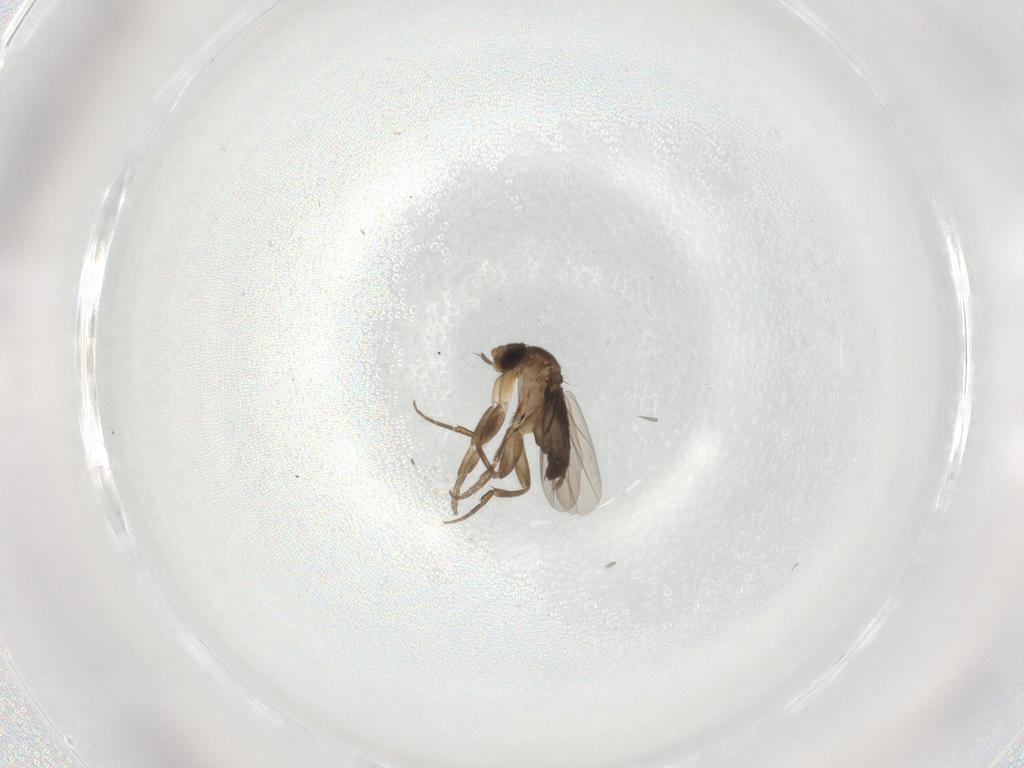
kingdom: Animalia
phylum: Arthropoda
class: Insecta
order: Diptera
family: Phoridae
